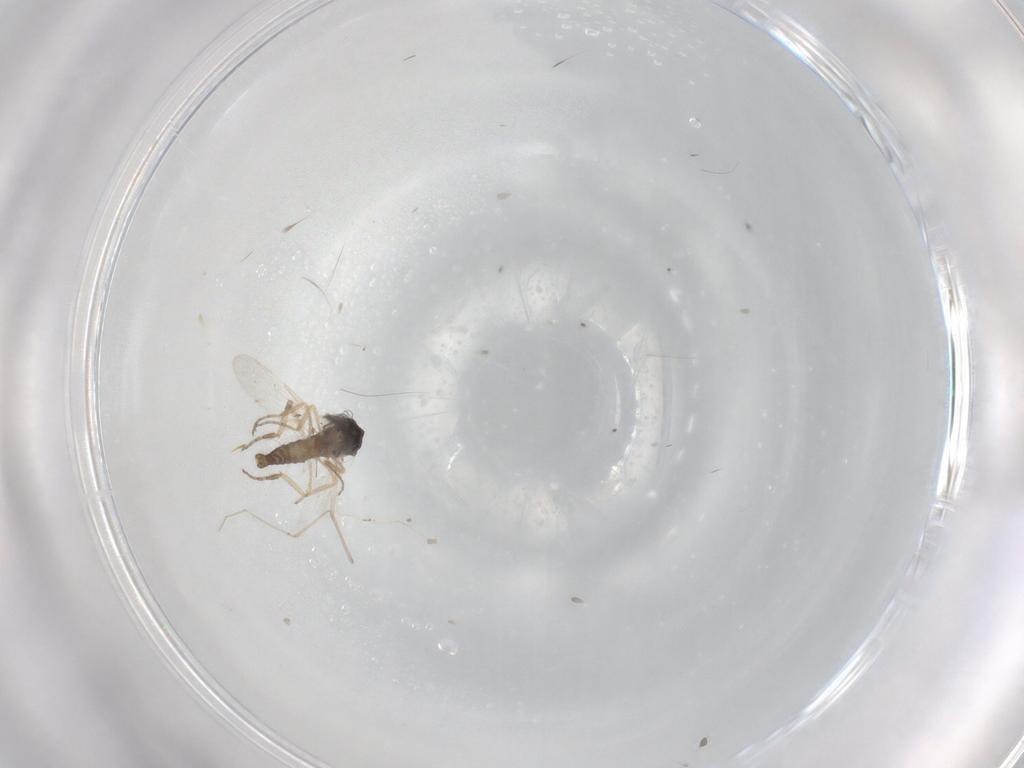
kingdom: Animalia
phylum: Arthropoda
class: Insecta
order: Diptera
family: Ceratopogonidae
